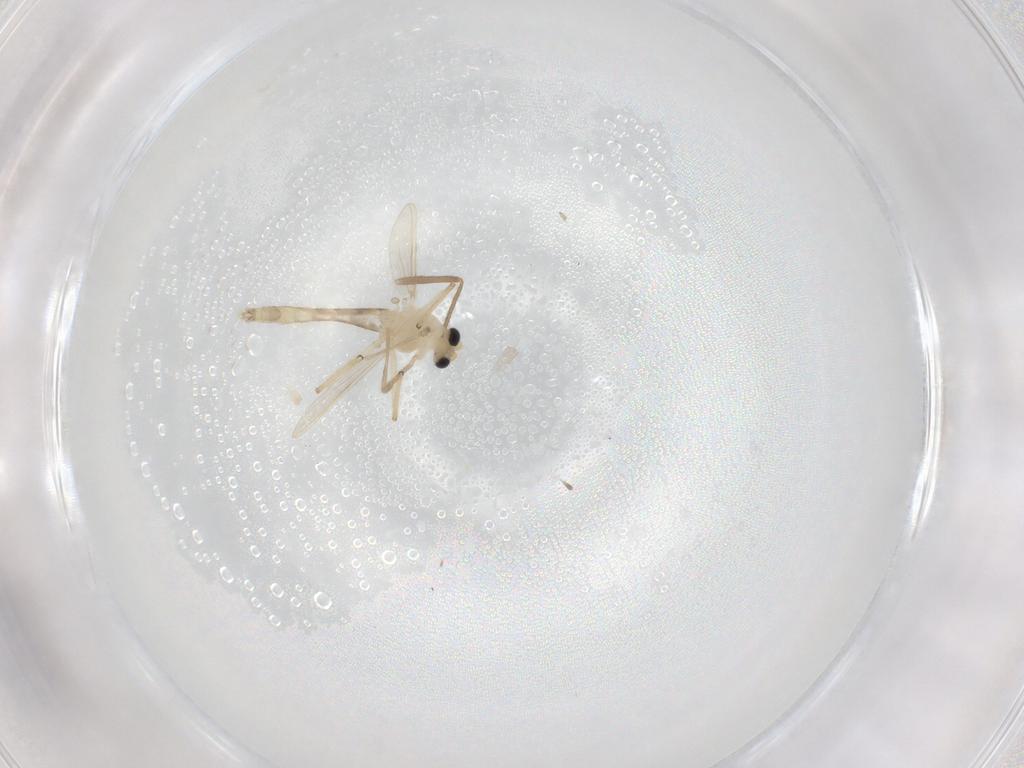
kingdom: Animalia
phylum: Arthropoda
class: Insecta
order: Diptera
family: Chironomidae
